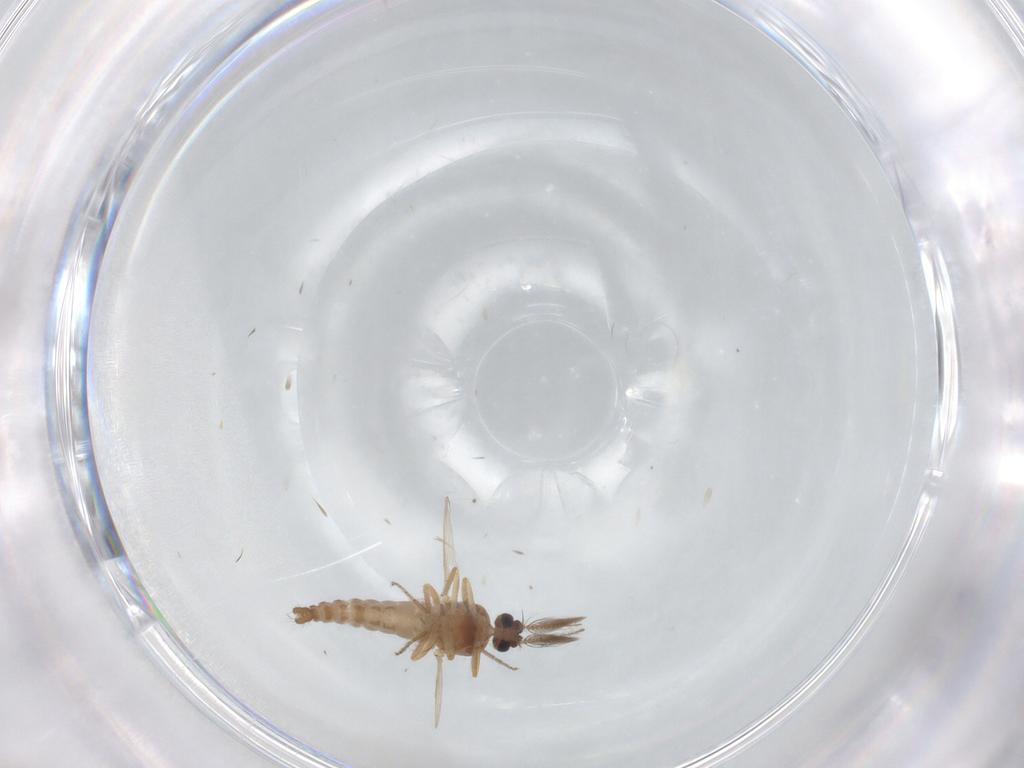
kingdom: Animalia
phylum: Arthropoda
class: Insecta
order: Diptera
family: Ceratopogonidae
